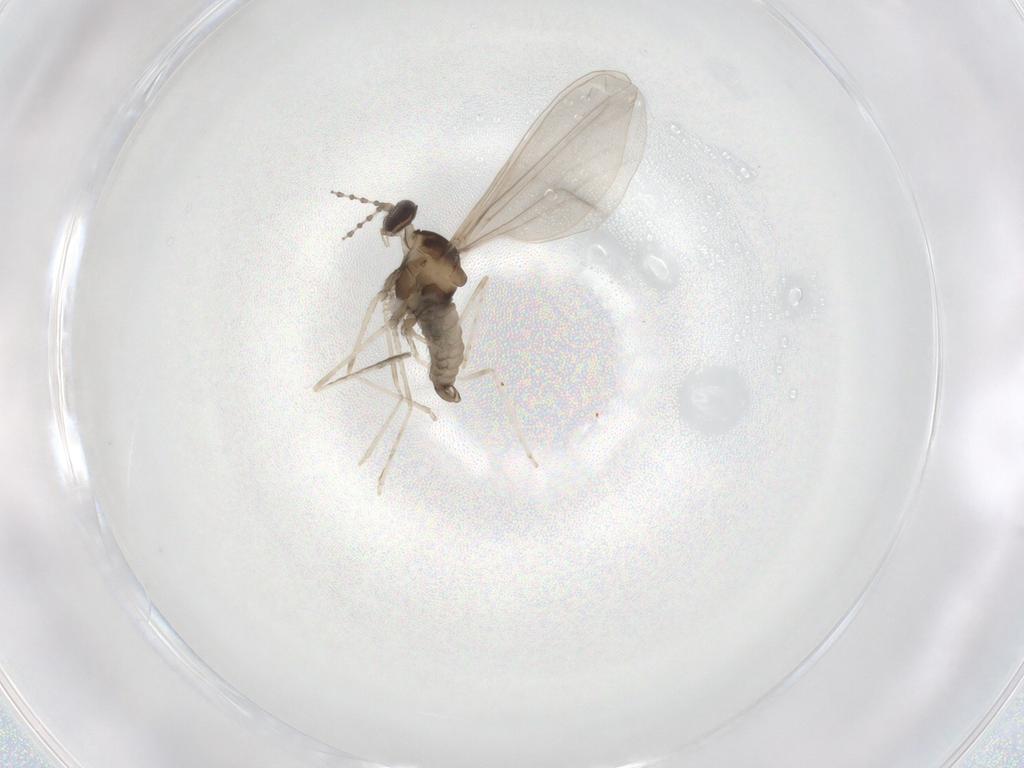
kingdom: Animalia
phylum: Arthropoda
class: Insecta
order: Diptera
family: Cecidomyiidae
